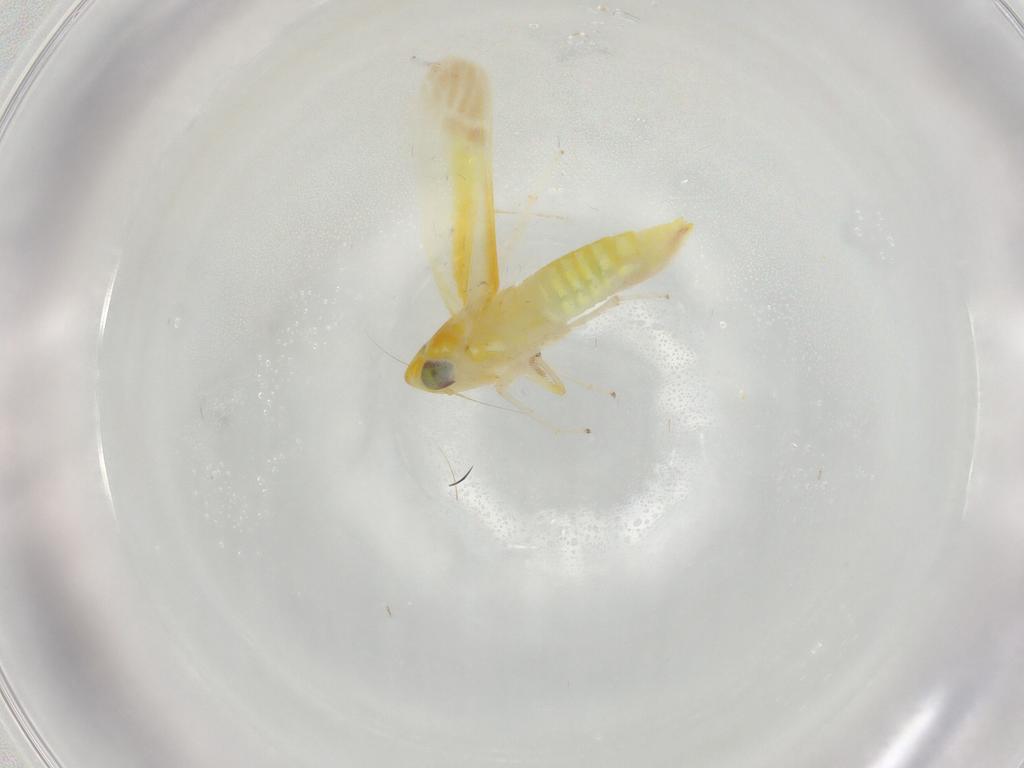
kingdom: Animalia
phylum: Arthropoda
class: Insecta
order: Hemiptera
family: Cicadellidae
